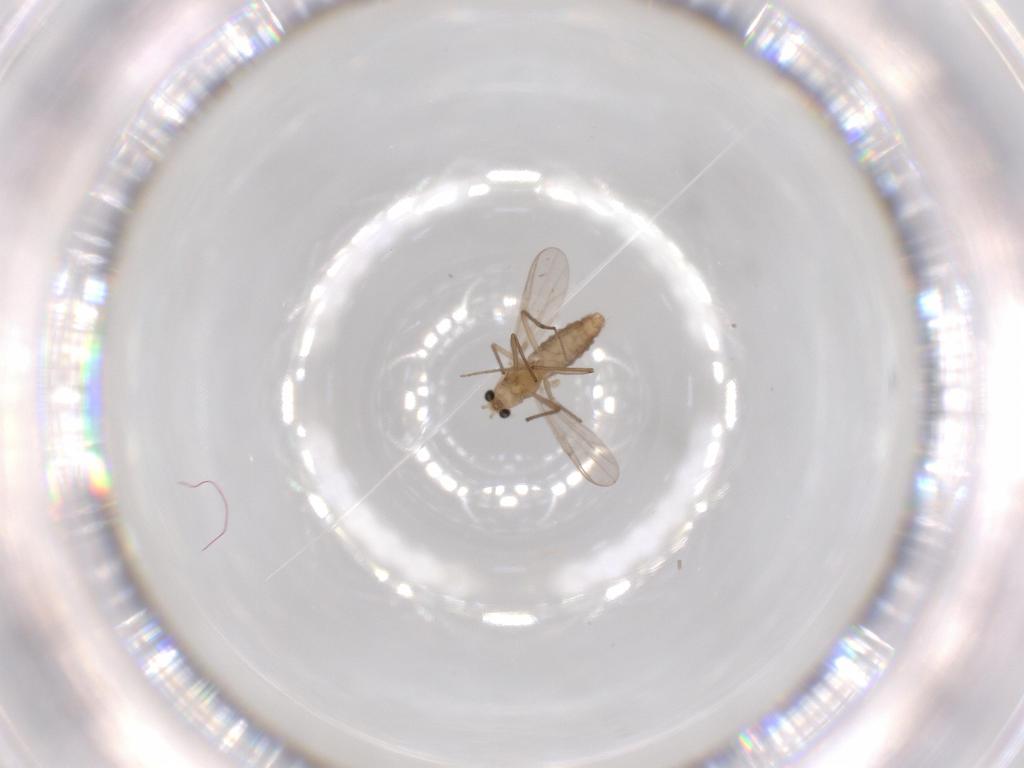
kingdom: Animalia
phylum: Arthropoda
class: Insecta
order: Diptera
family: Chironomidae
